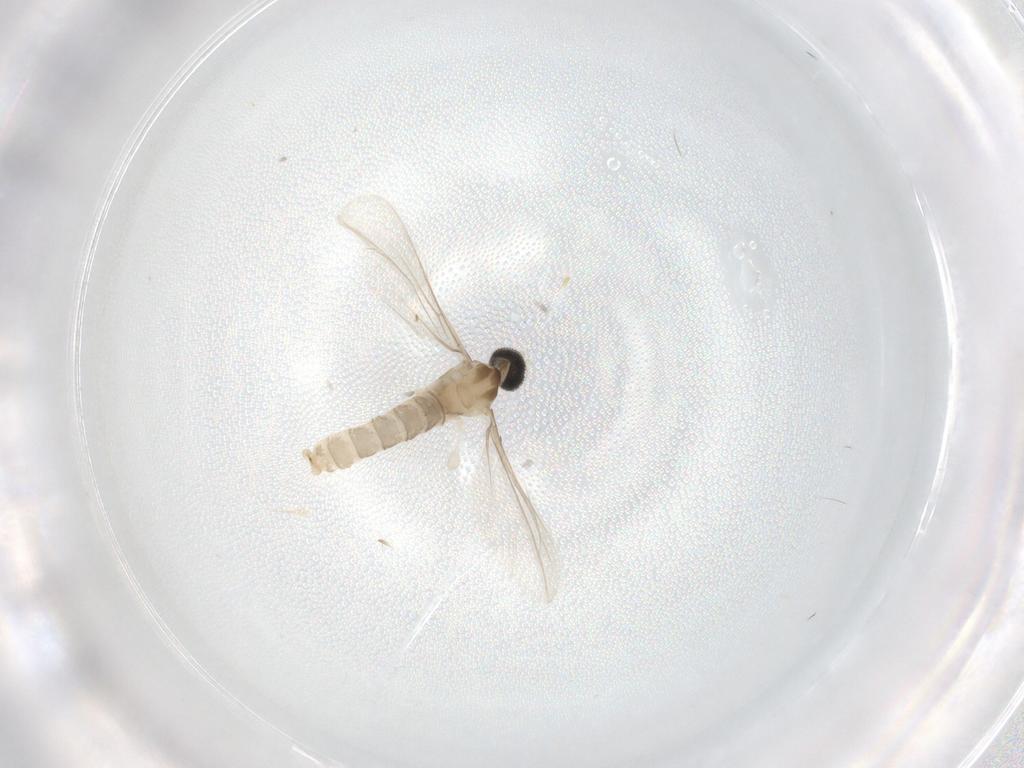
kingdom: Animalia
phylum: Arthropoda
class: Insecta
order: Diptera
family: Cecidomyiidae
